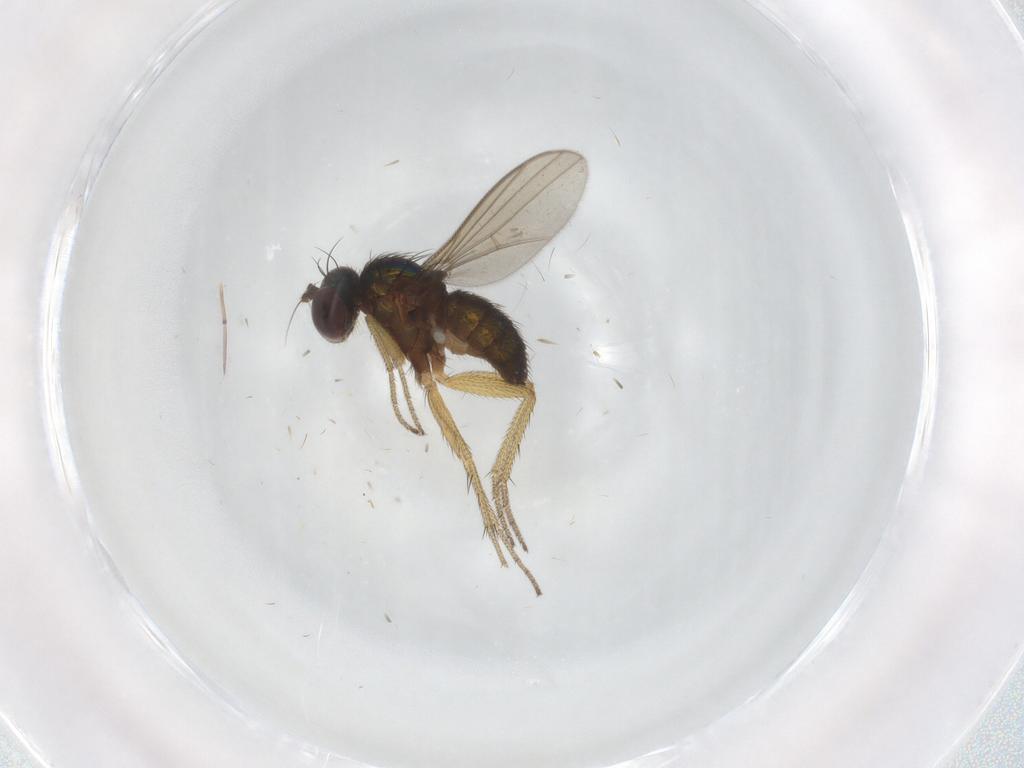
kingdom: Animalia
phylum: Arthropoda
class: Insecta
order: Diptera
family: Dolichopodidae
